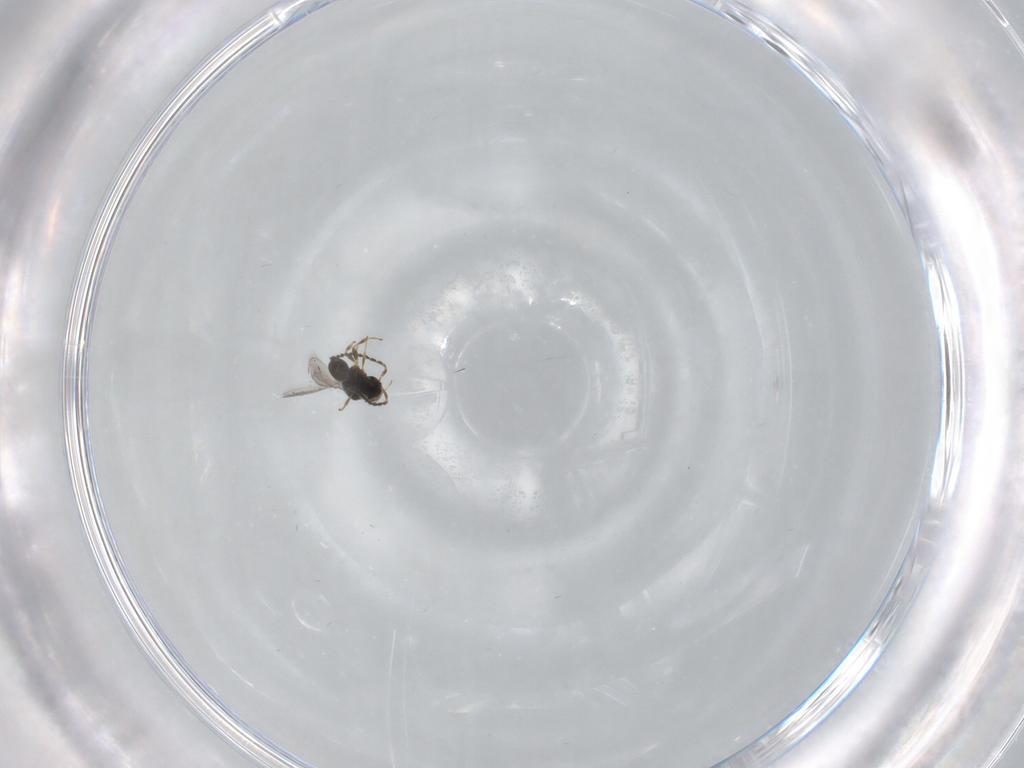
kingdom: Animalia
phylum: Arthropoda
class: Insecta
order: Hymenoptera
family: Scelionidae
